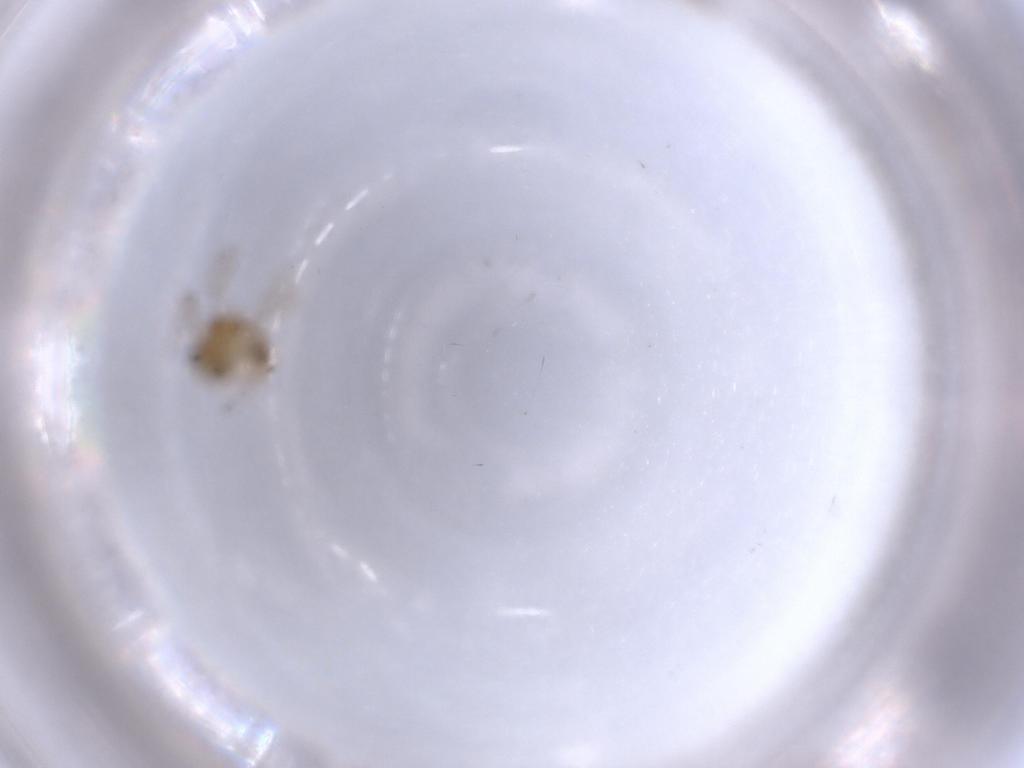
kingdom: Animalia
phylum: Arthropoda
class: Insecta
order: Diptera
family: Chironomidae
